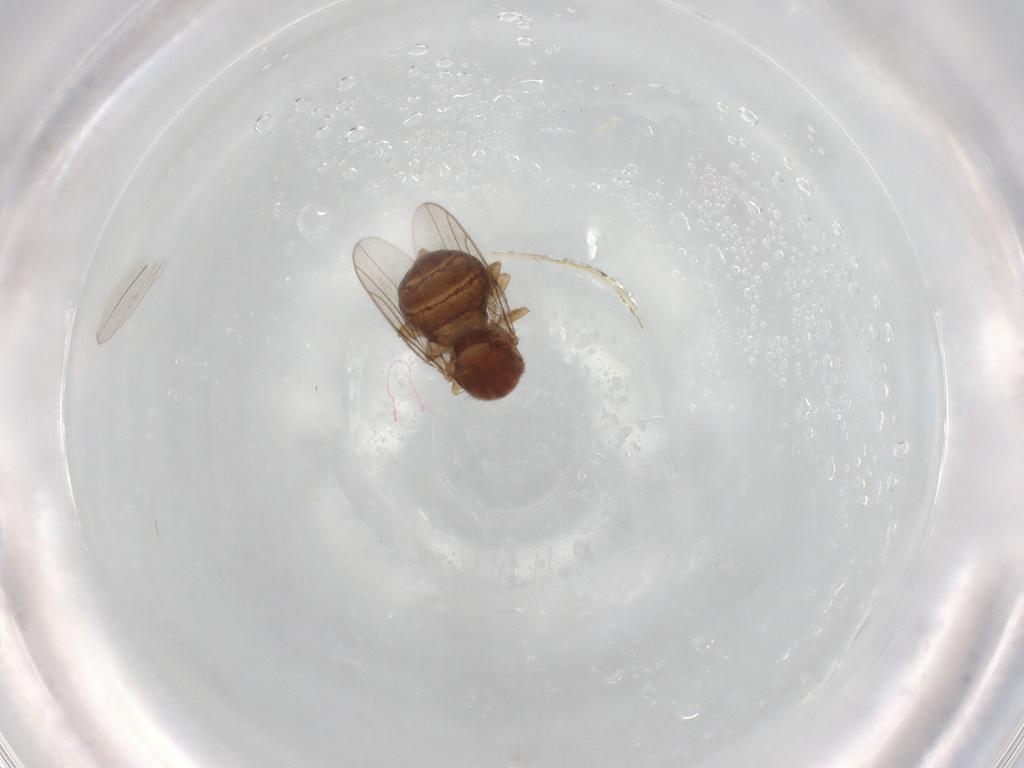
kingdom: Animalia
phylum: Arthropoda
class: Insecta
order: Diptera
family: Chloropidae
